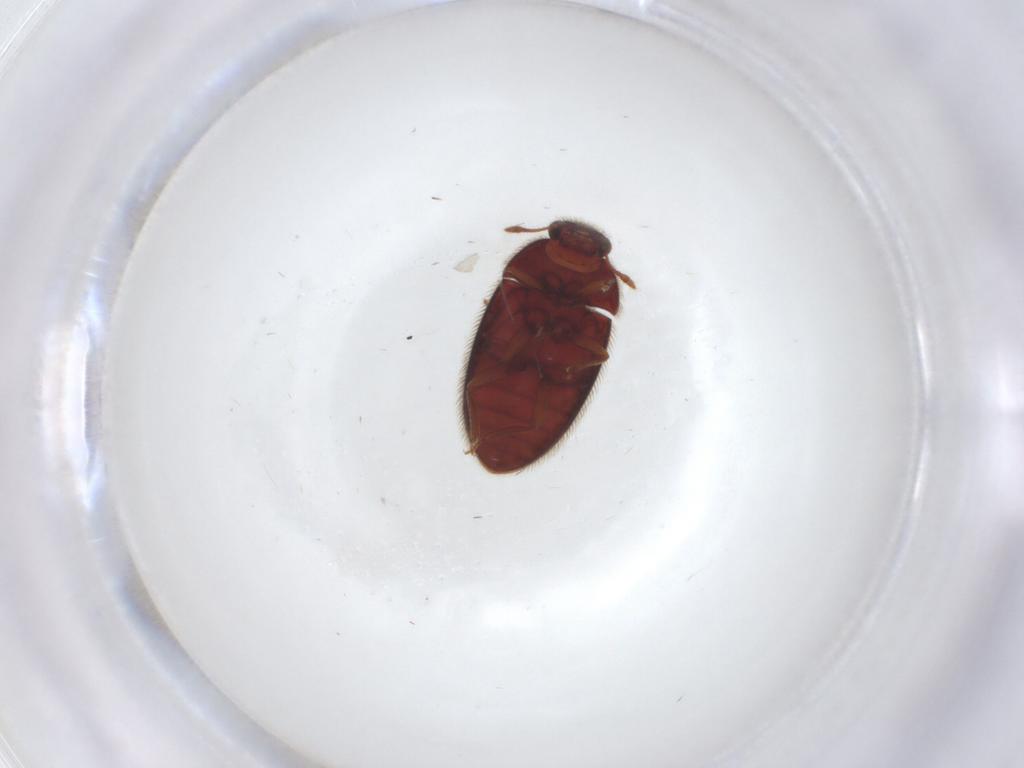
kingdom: Animalia
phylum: Arthropoda
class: Insecta
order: Coleoptera
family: Biphyllidae
